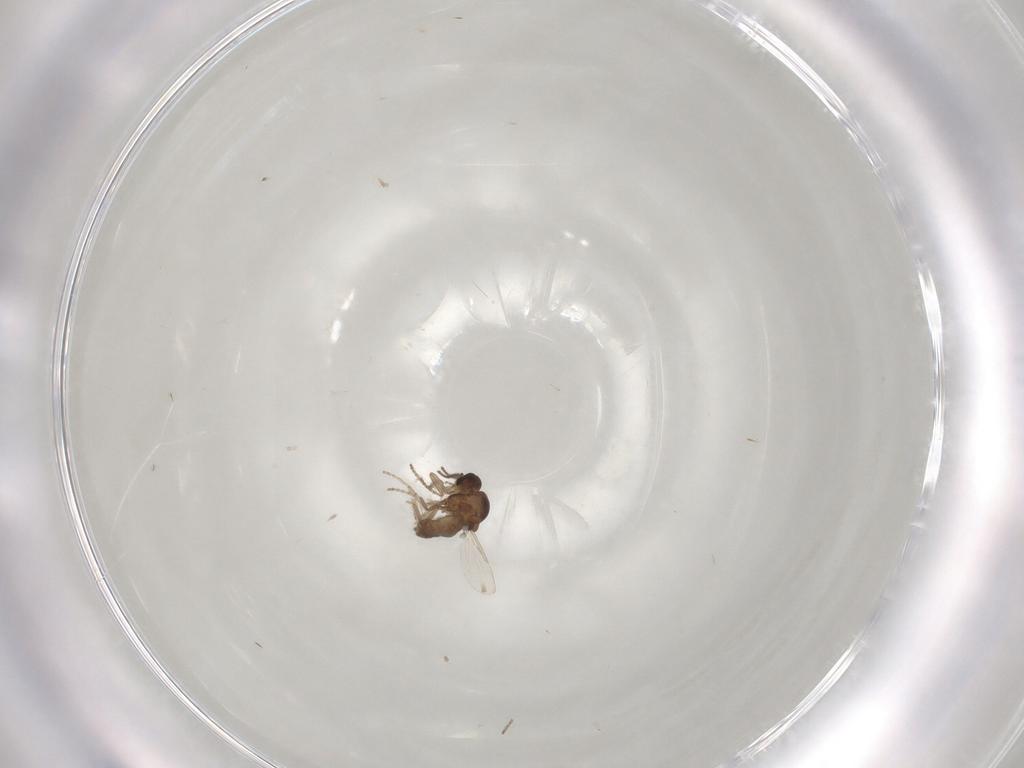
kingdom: Animalia
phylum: Arthropoda
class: Insecta
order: Diptera
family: Ceratopogonidae
